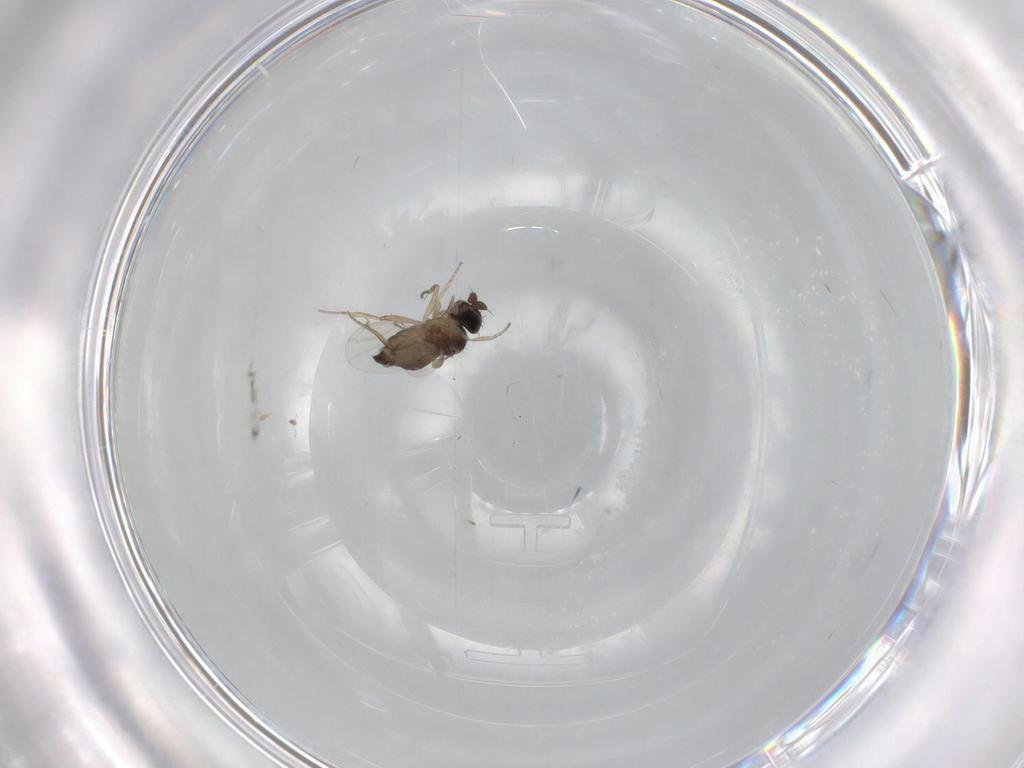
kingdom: Animalia
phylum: Arthropoda
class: Insecta
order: Diptera
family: Phoridae
